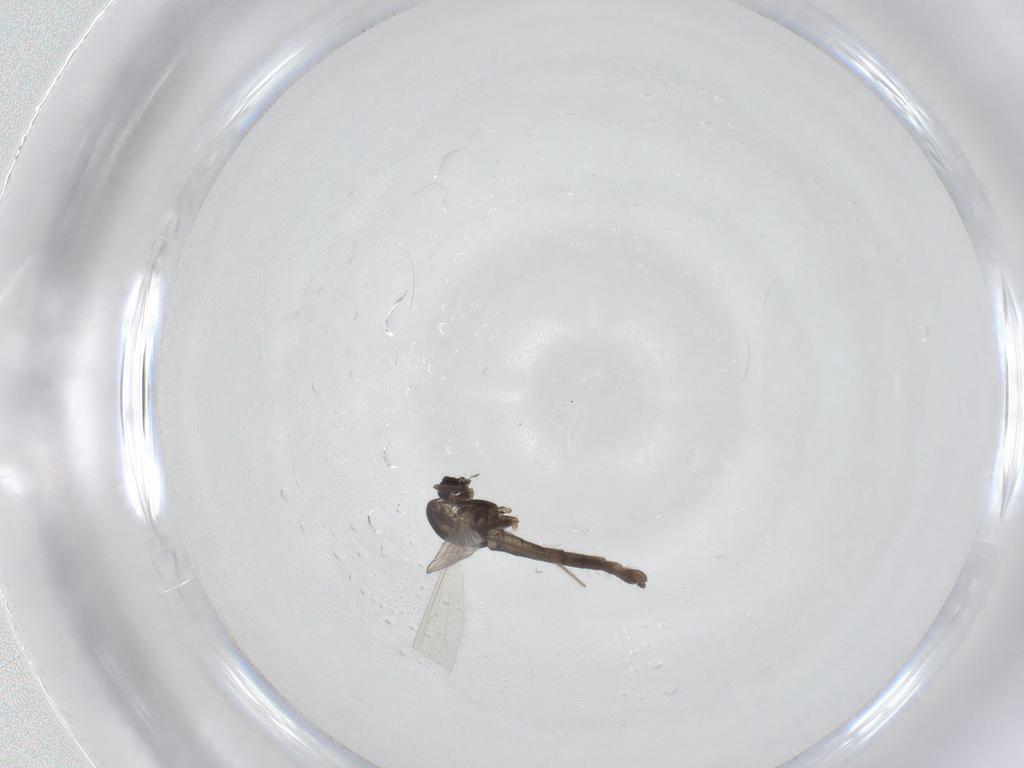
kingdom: Animalia
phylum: Arthropoda
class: Insecta
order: Diptera
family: Chironomidae
